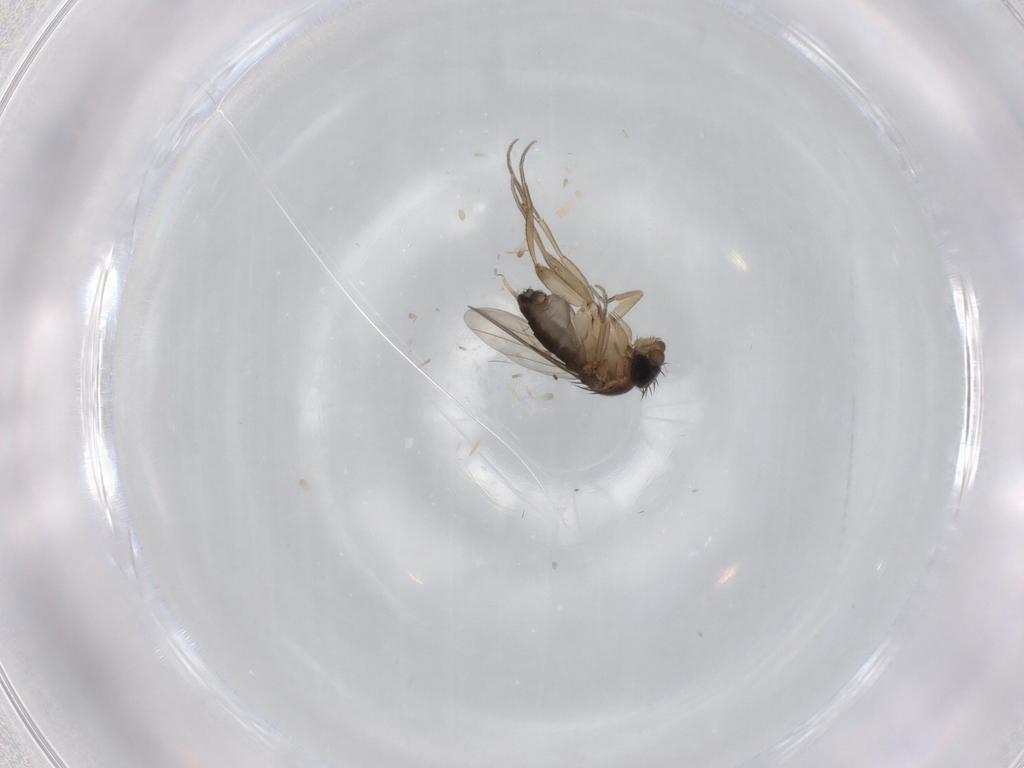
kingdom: Animalia
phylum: Arthropoda
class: Insecta
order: Diptera
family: Phoridae
